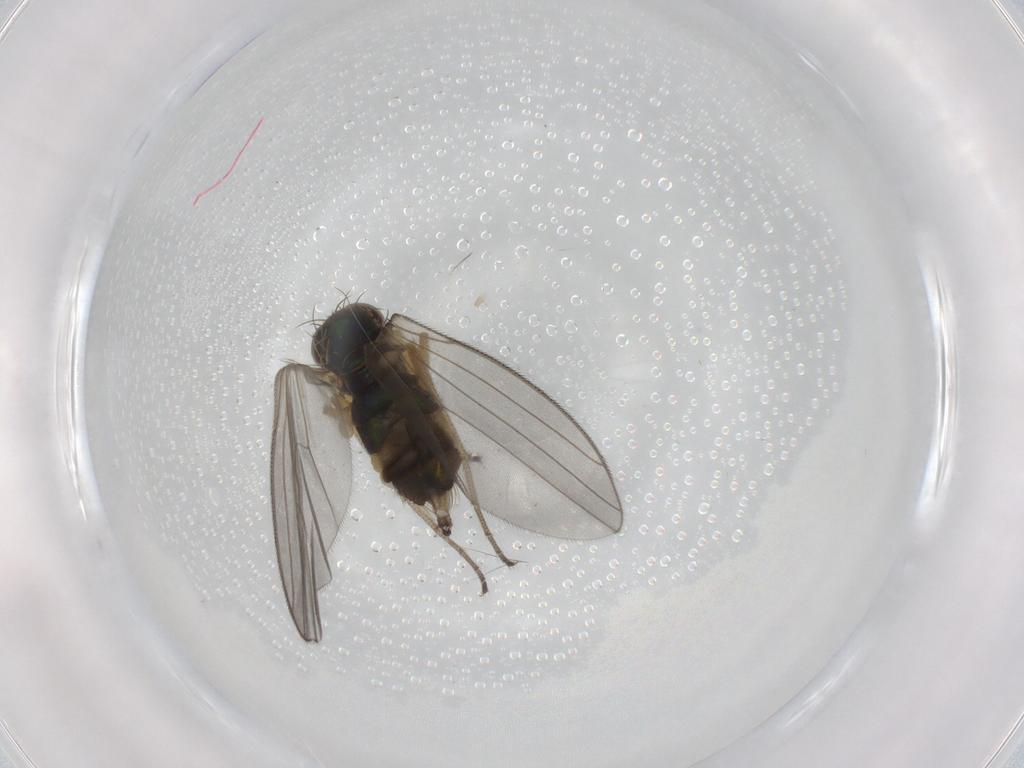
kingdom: Animalia
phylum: Arthropoda
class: Insecta
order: Diptera
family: Dolichopodidae
